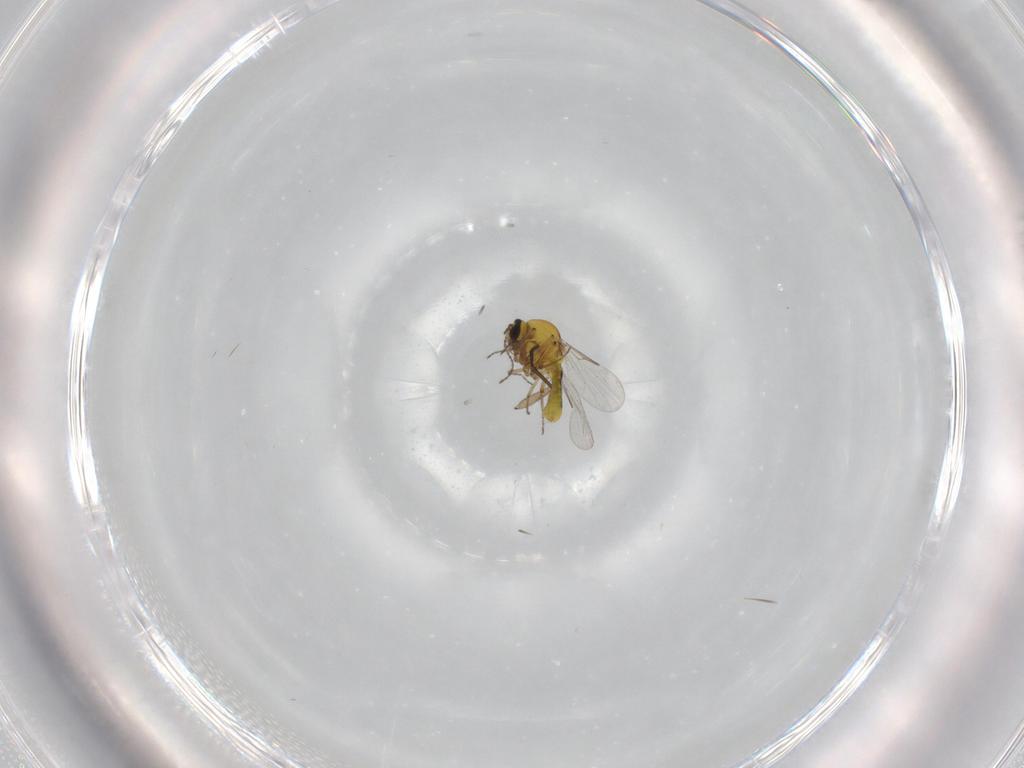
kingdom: Animalia
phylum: Arthropoda
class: Insecta
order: Diptera
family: Ceratopogonidae
